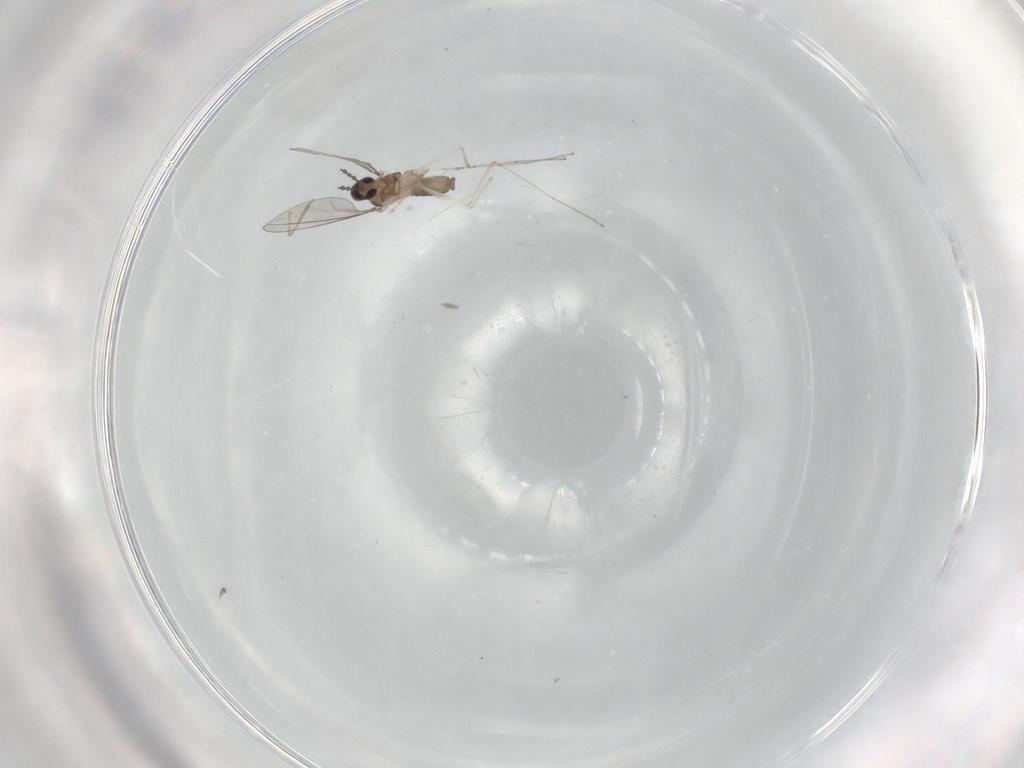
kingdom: Animalia
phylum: Arthropoda
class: Insecta
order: Diptera
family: Cecidomyiidae
